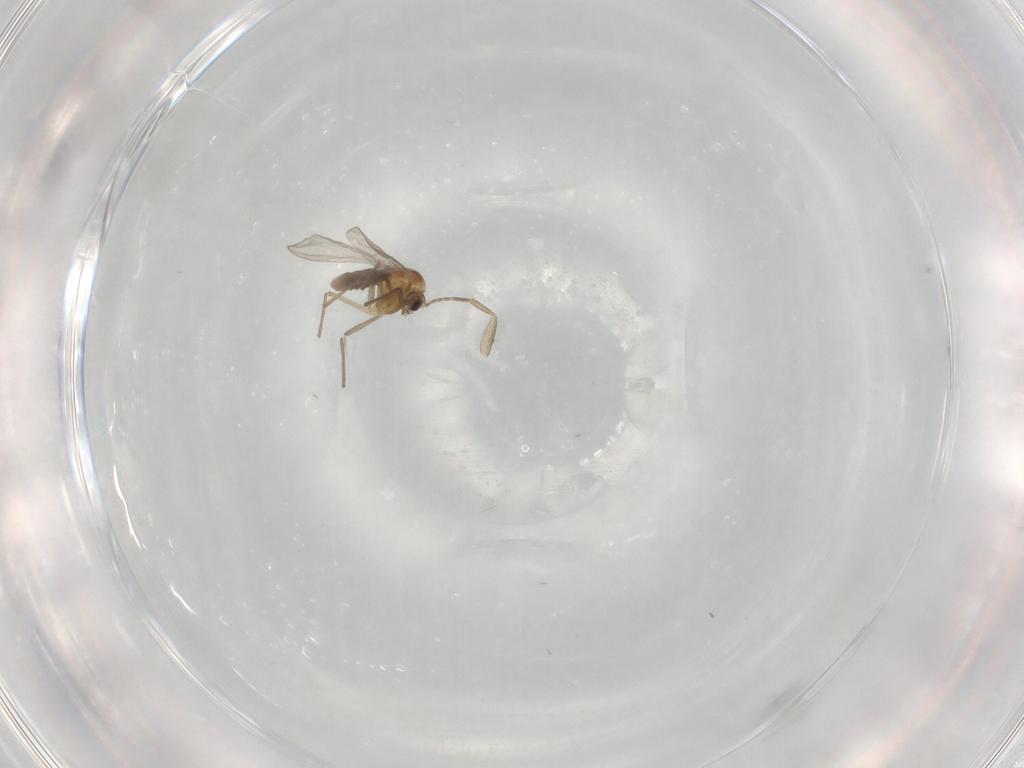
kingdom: Animalia
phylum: Arthropoda
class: Insecta
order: Diptera
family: Chironomidae
